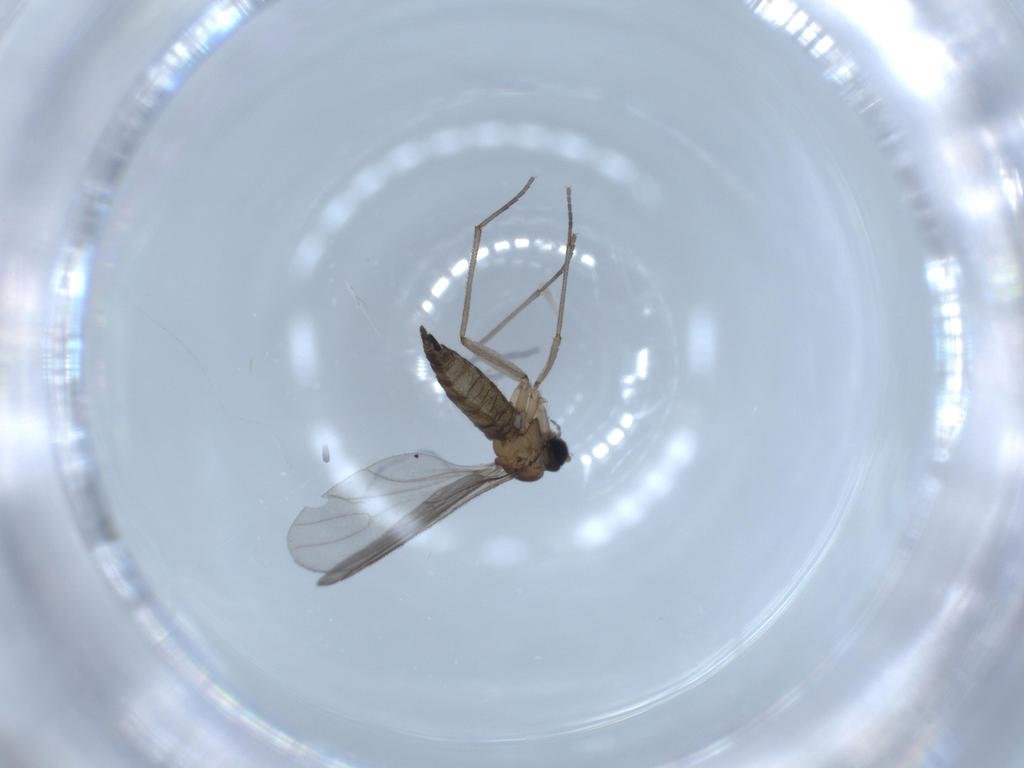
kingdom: Animalia
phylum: Arthropoda
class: Insecta
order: Diptera
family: Sciaridae
